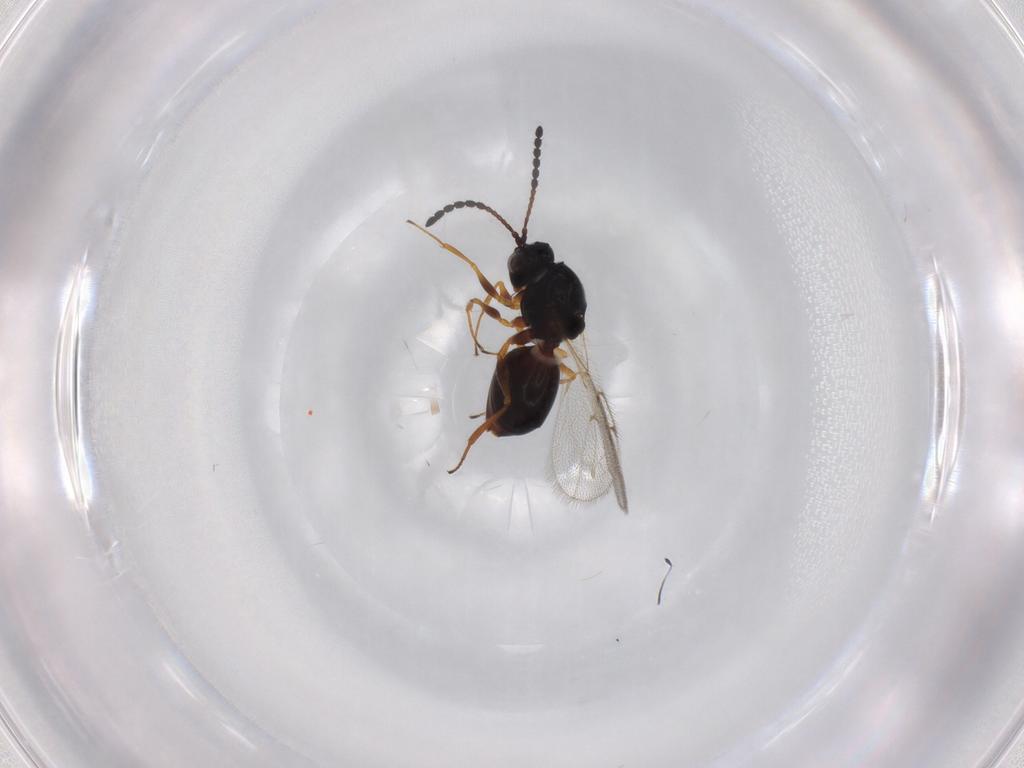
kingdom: Animalia
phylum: Arthropoda
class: Insecta
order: Hymenoptera
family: Figitidae
